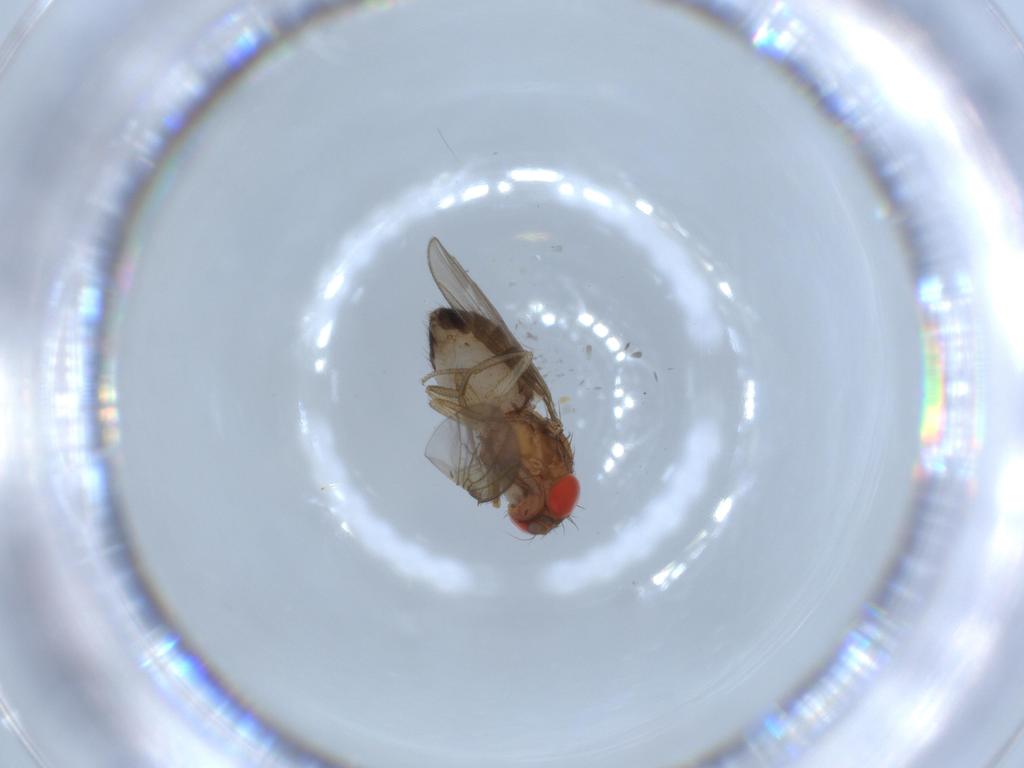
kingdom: Animalia
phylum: Arthropoda
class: Insecta
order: Diptera
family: Drosophilidae
